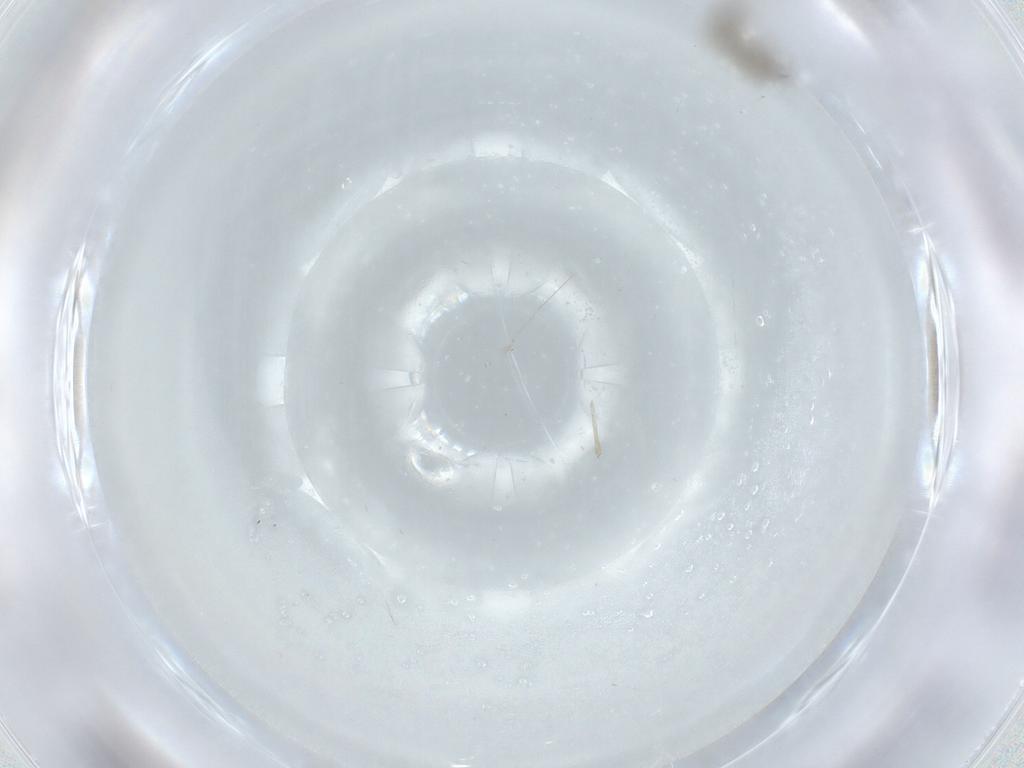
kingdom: Animalia
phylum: Arthropoda
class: Insecta
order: Diptera
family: Cecidomyiidae
